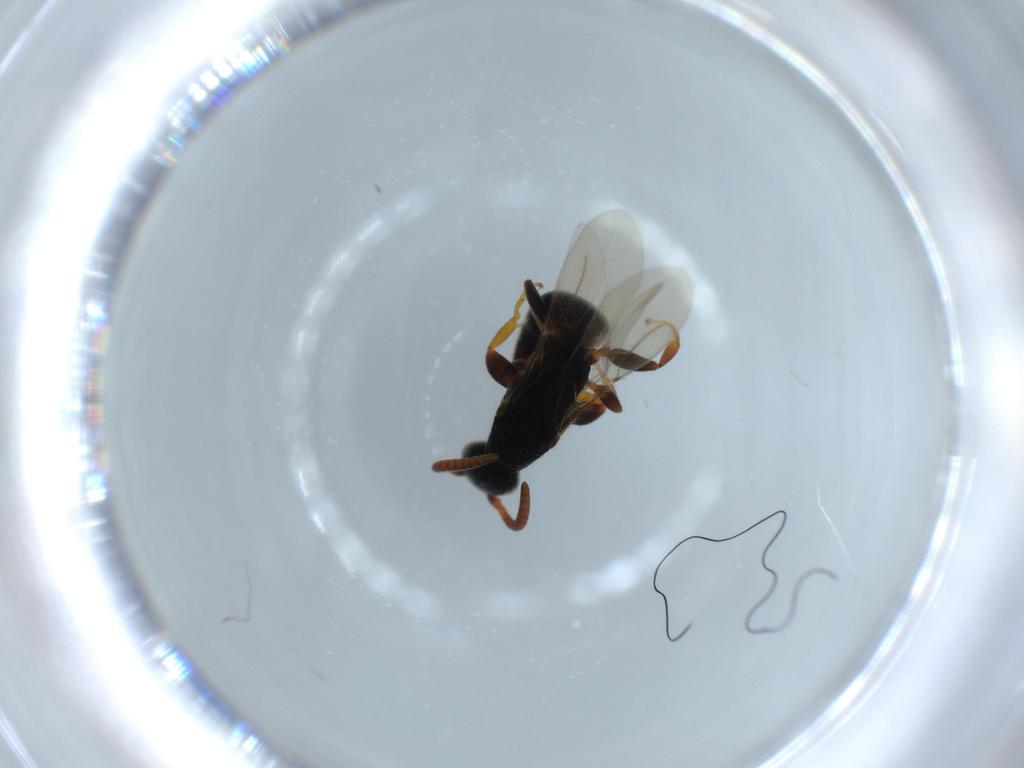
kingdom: Animalia
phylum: Arthropoda
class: Insecta
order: Hymenoptera
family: Bethylidae
